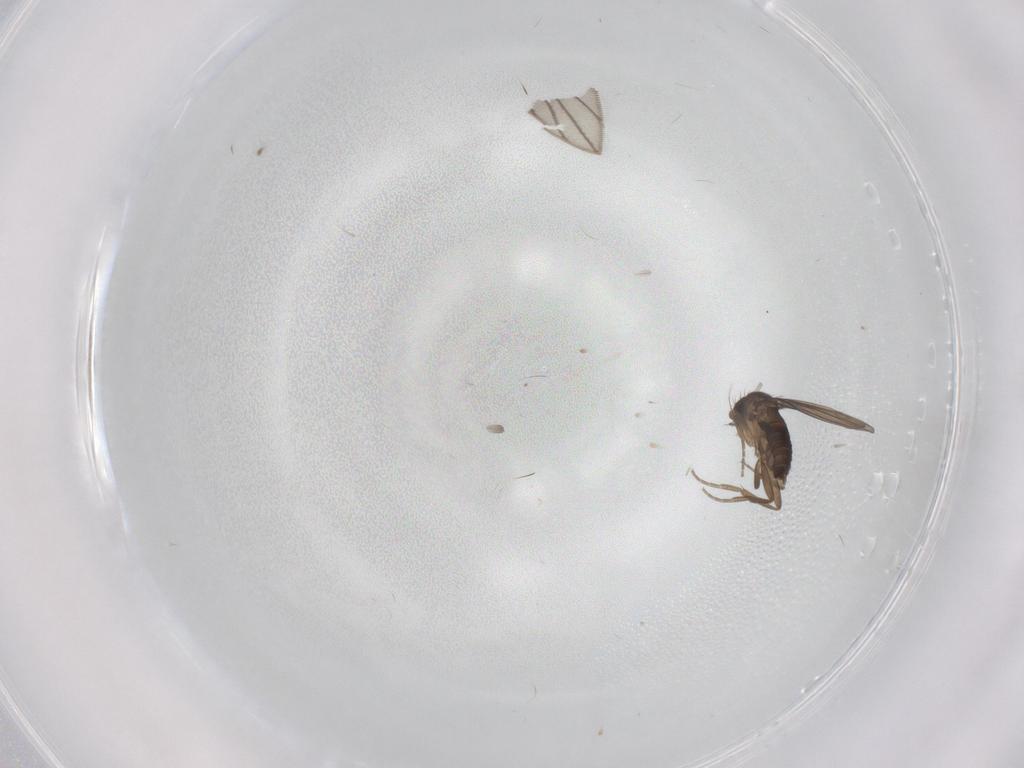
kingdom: Animalia
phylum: Arthropoda
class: Insecta
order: Diptera
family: Phoridae
